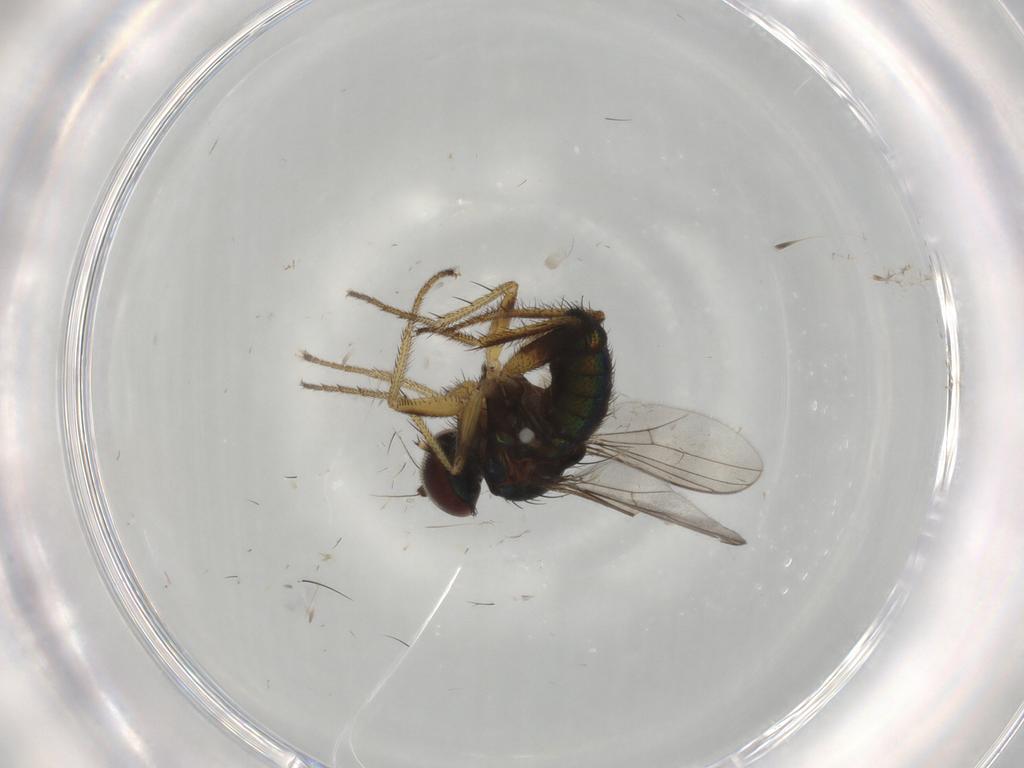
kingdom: Animalia
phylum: Arthropoda
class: Insecta
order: Diptera
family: Dolichopodidae
